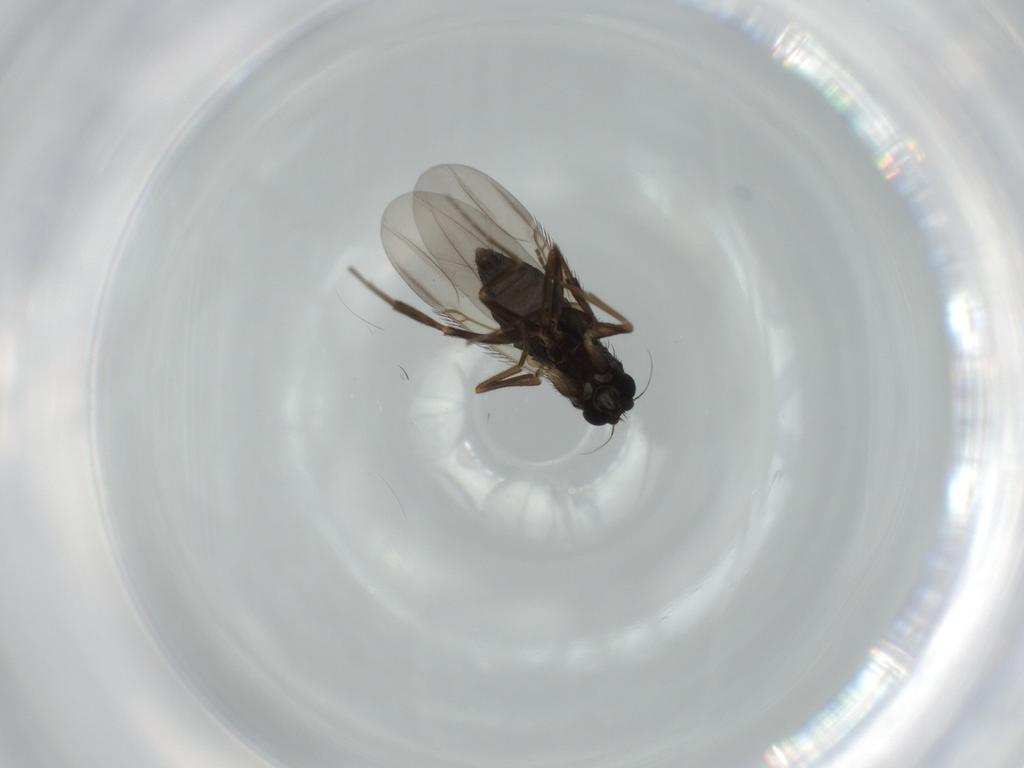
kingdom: Animalia
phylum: Arthropoda
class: Insecta
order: Diptera
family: Phoridae
